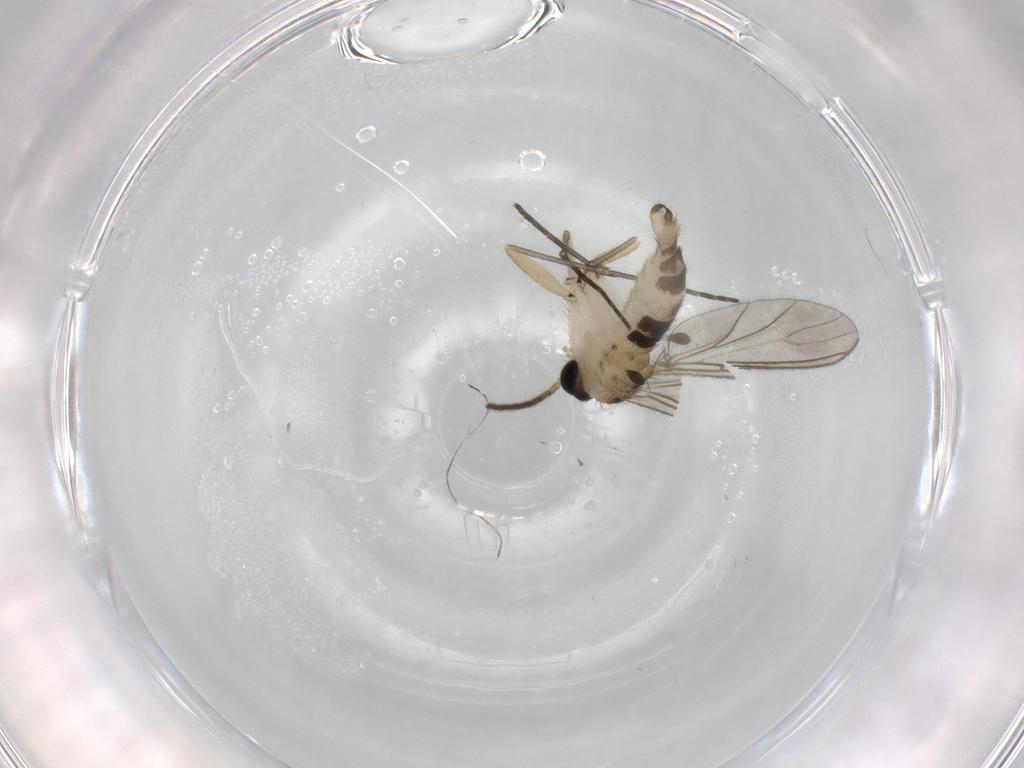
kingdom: Animalia
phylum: Arthropoda
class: Insecta
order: Diptera
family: Sciaridae
